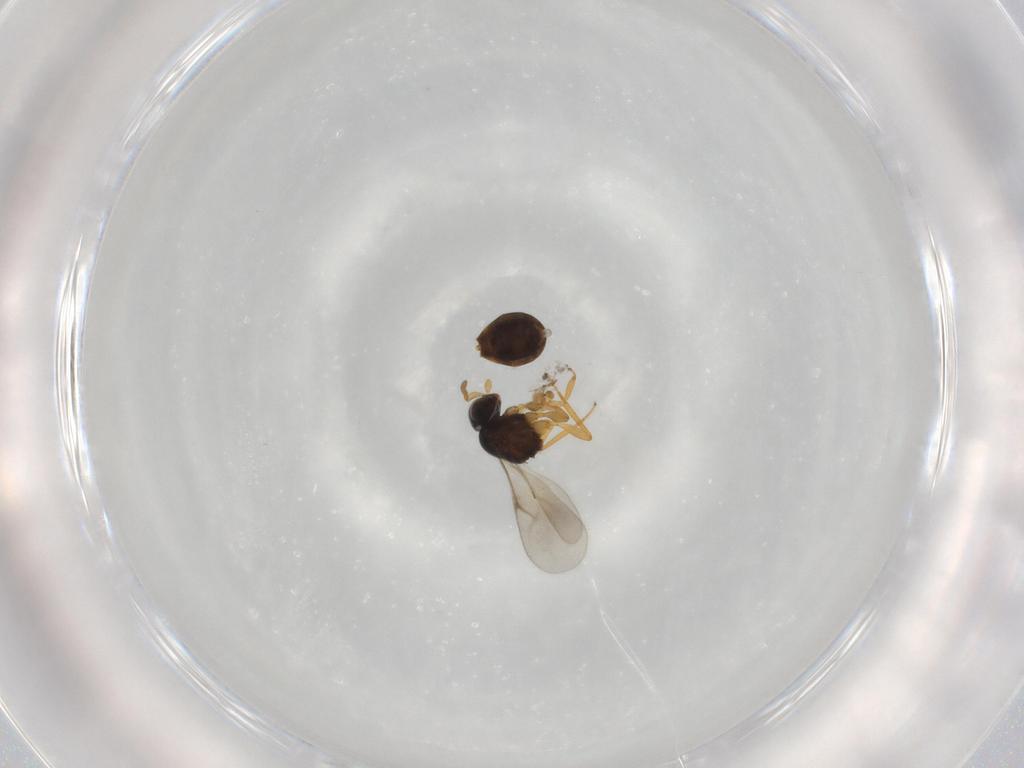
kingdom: Animalia
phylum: Arthropoda
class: Insecta
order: Hymenoptera
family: Scelionidae
